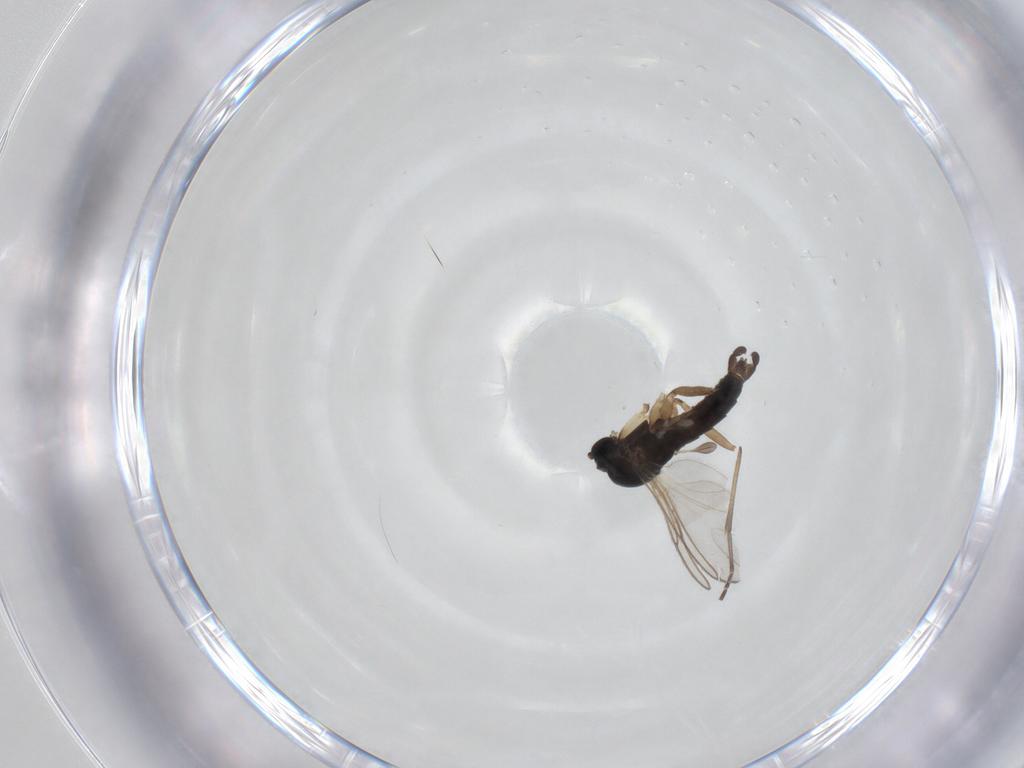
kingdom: Animalia
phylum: Arthropoda
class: Insecta
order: Diptera
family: Sciaridae
